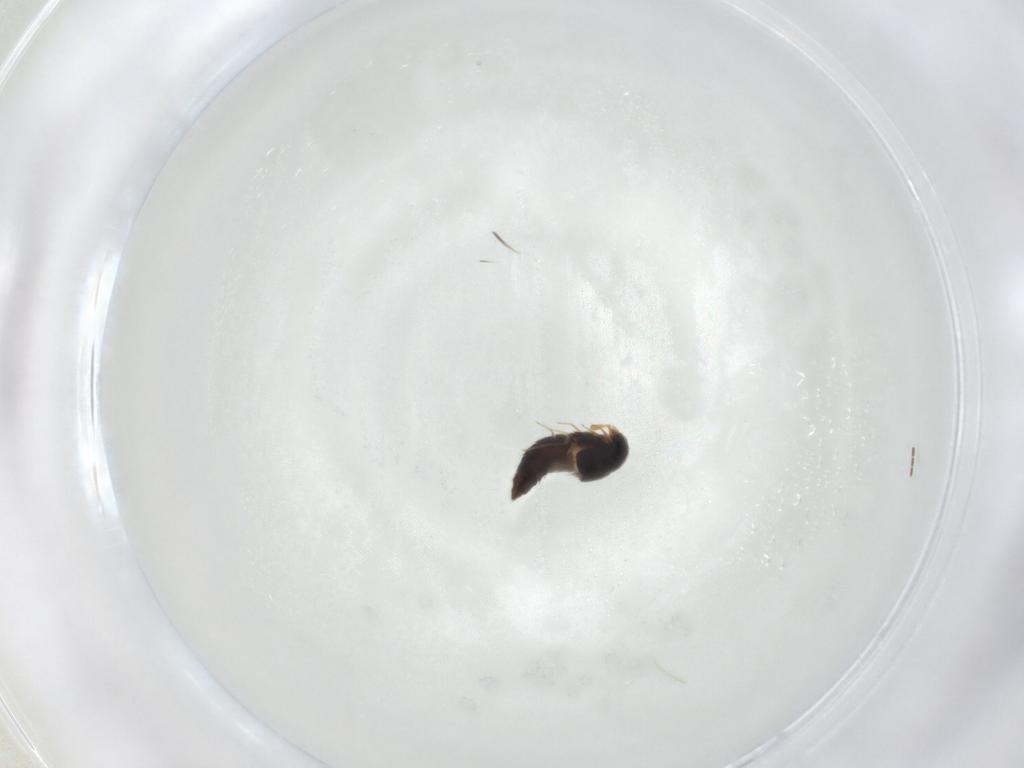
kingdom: Animalia
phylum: Arthropoda
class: Insecta
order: Coleoptera
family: Staphylinidae
